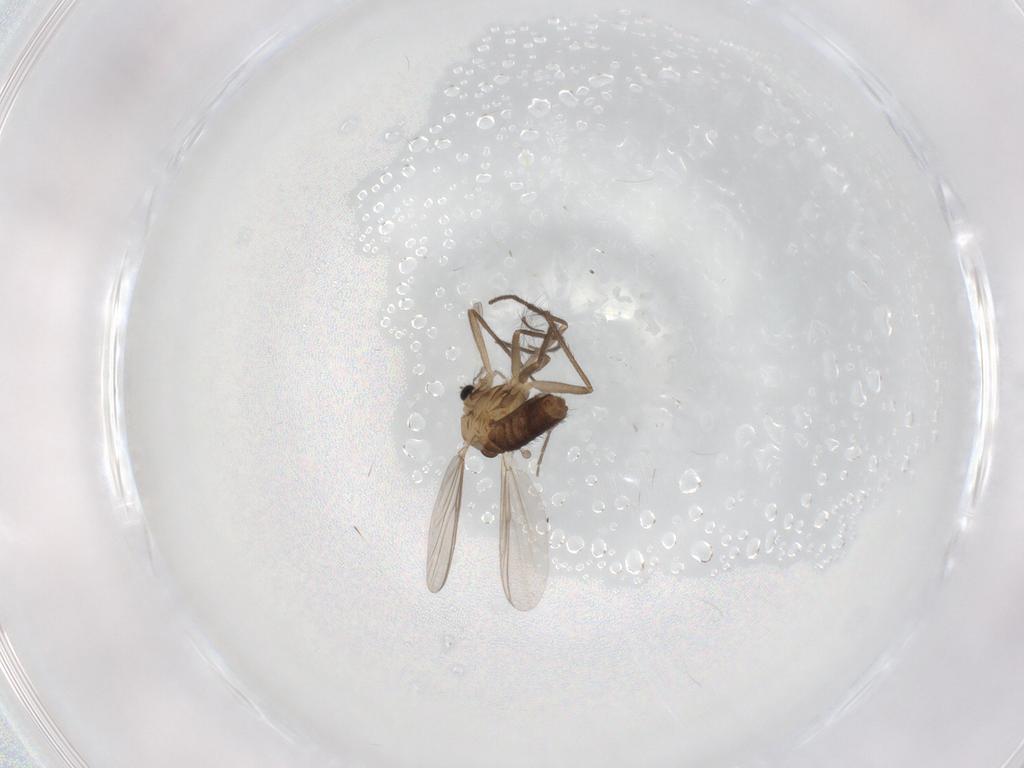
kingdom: Animalia
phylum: Arthropoda
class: Insecta
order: Diptera
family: Chironomidae
